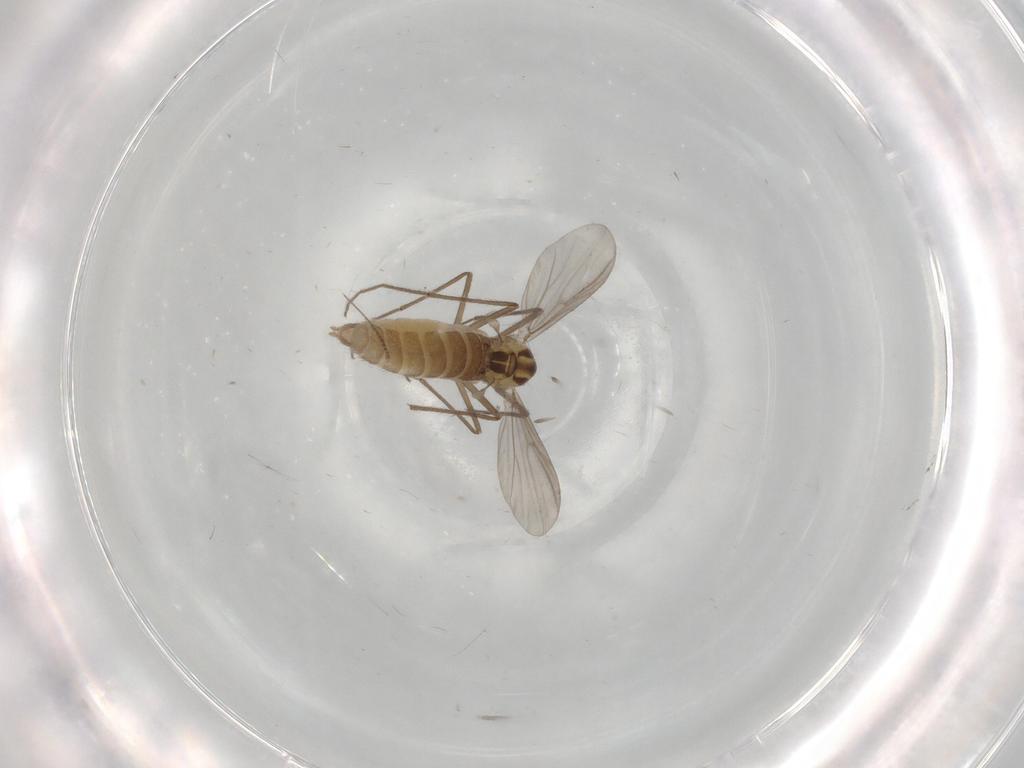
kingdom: Animalia
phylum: Arthropoda
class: Insecta
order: Diptera
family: Chironomidae
